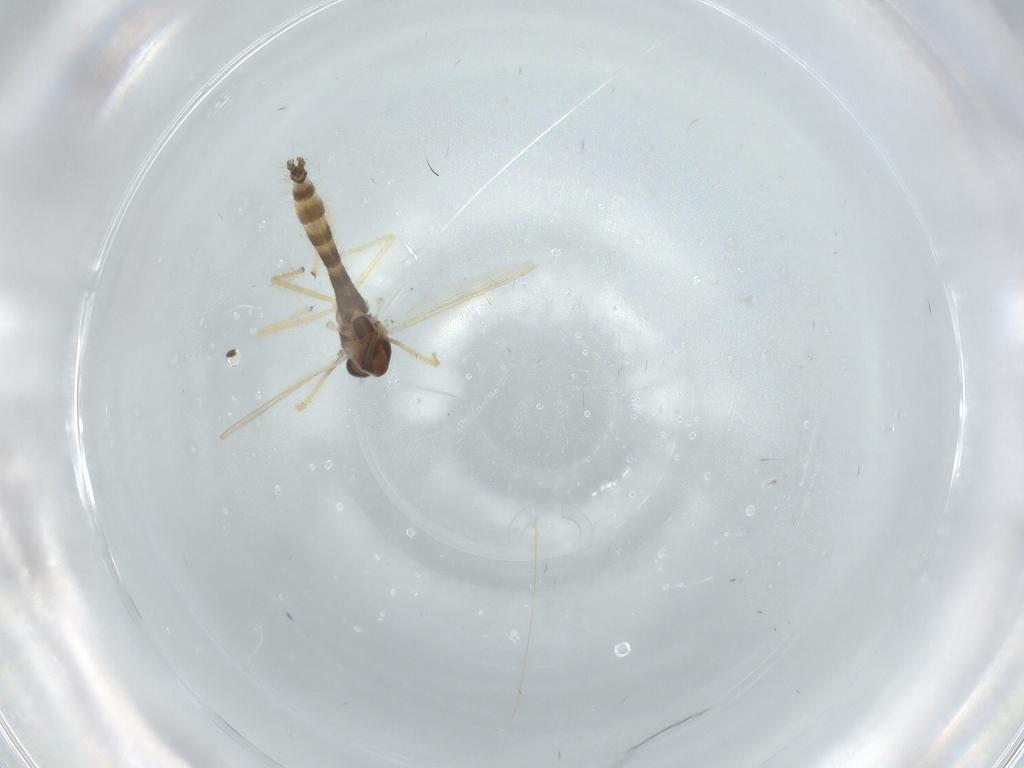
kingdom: Animalia
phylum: Arthropoda
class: Insecta
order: Diptera
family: Chironomidae
